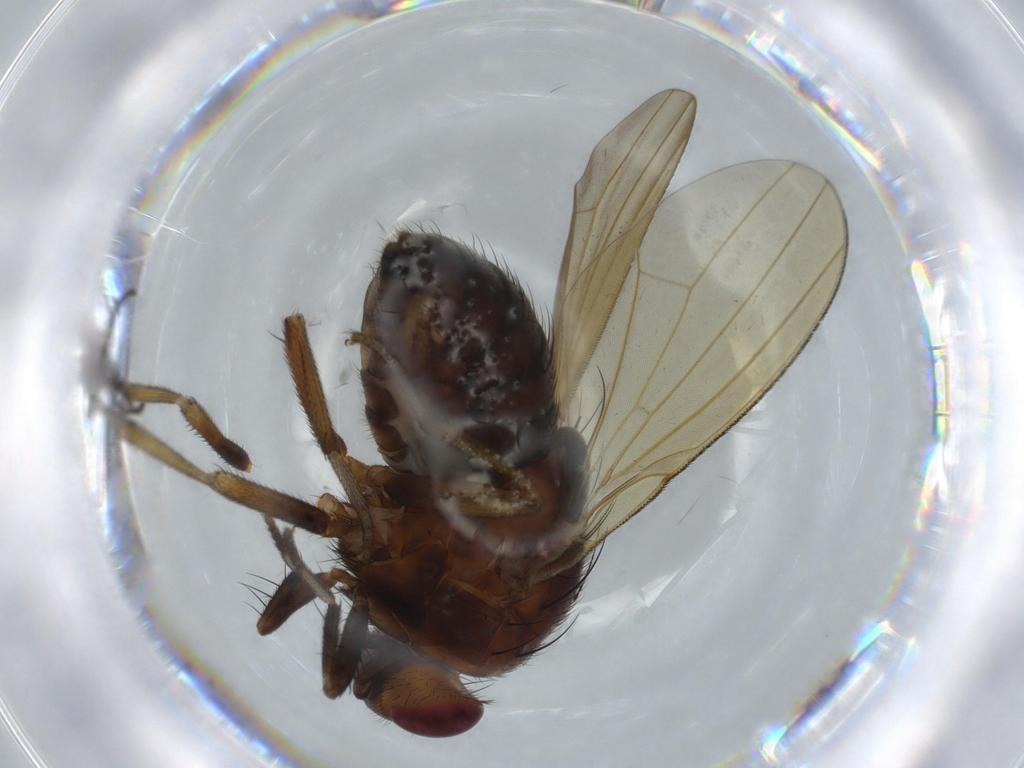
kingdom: Animalia
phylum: Arthropoda
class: Insecta
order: Diptera
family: Sciaridae
